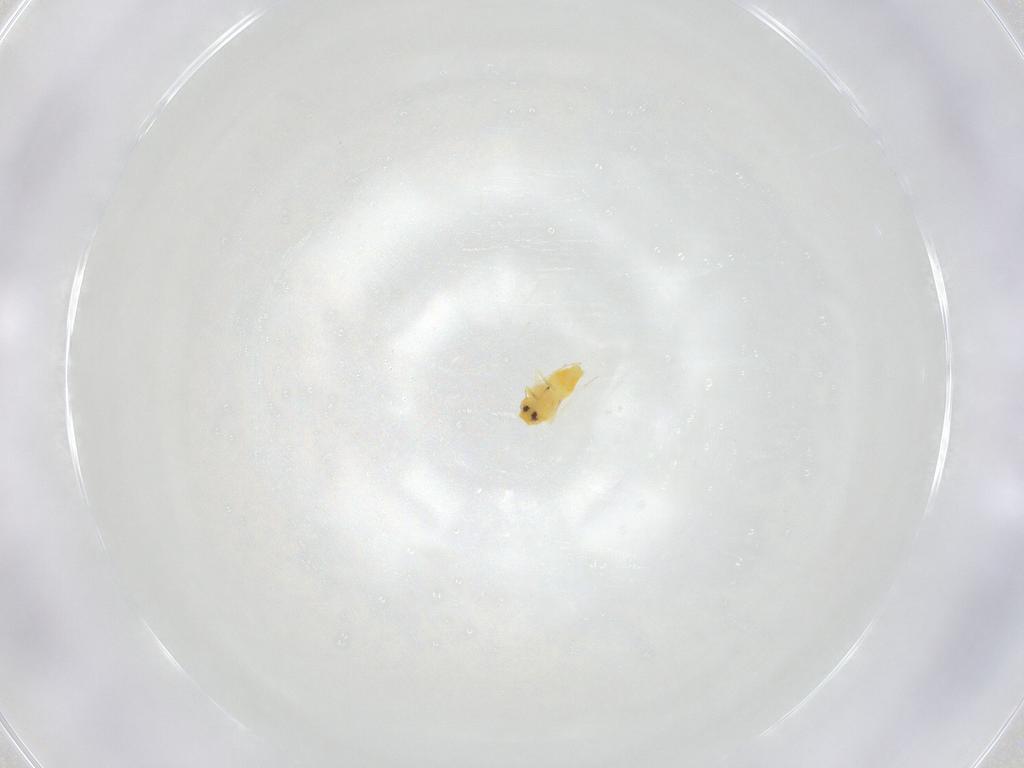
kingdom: Animalia
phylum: Arthropoda
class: Insecta
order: Hemiptera
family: Aleyrodidae
